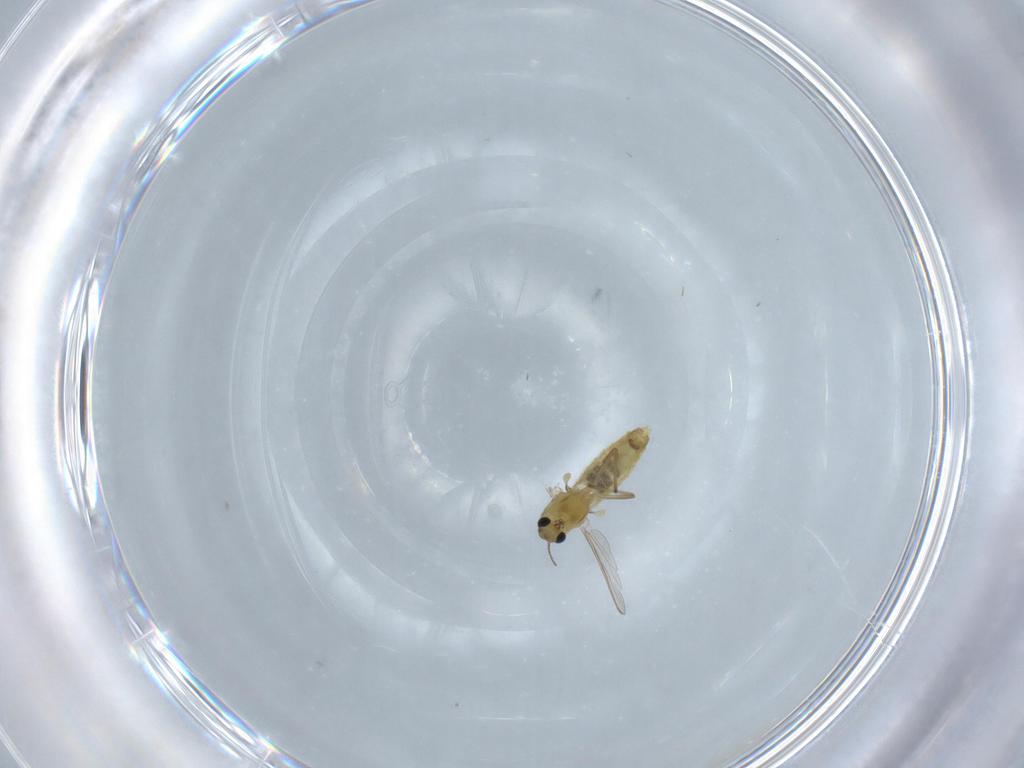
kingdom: Animalia
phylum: Arthropoda
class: Insecta
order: Diptera
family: Chironomidae
